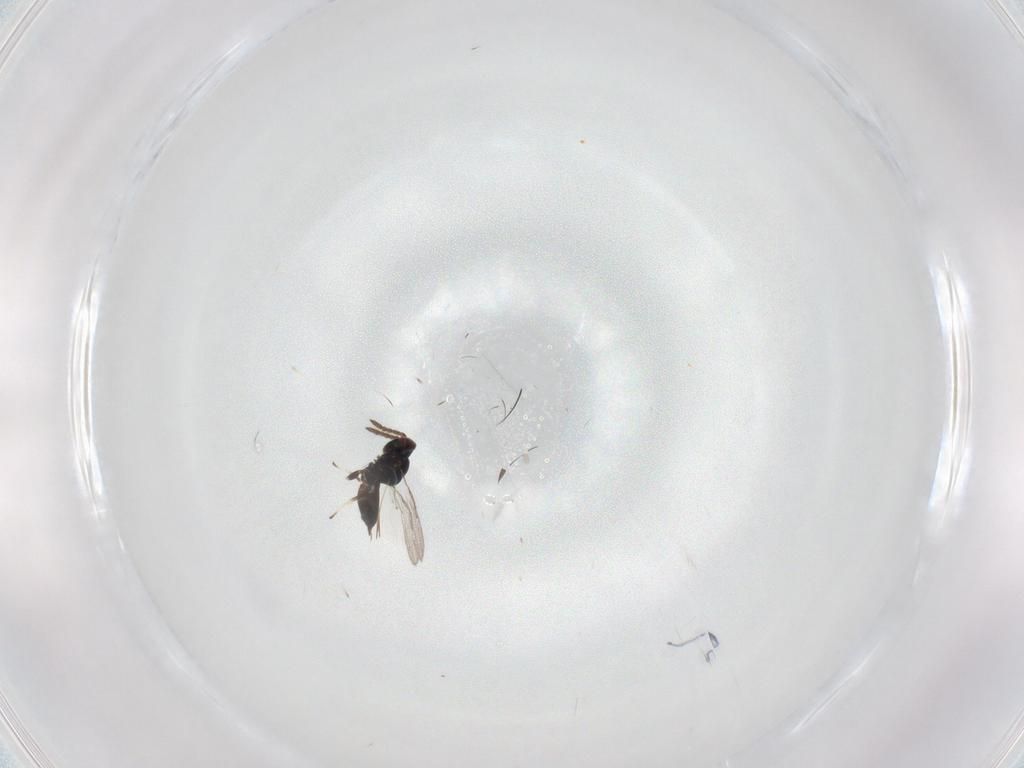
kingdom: Animalia
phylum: Arthropoda
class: Insecta
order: Hymenoptera
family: Eulophidae
